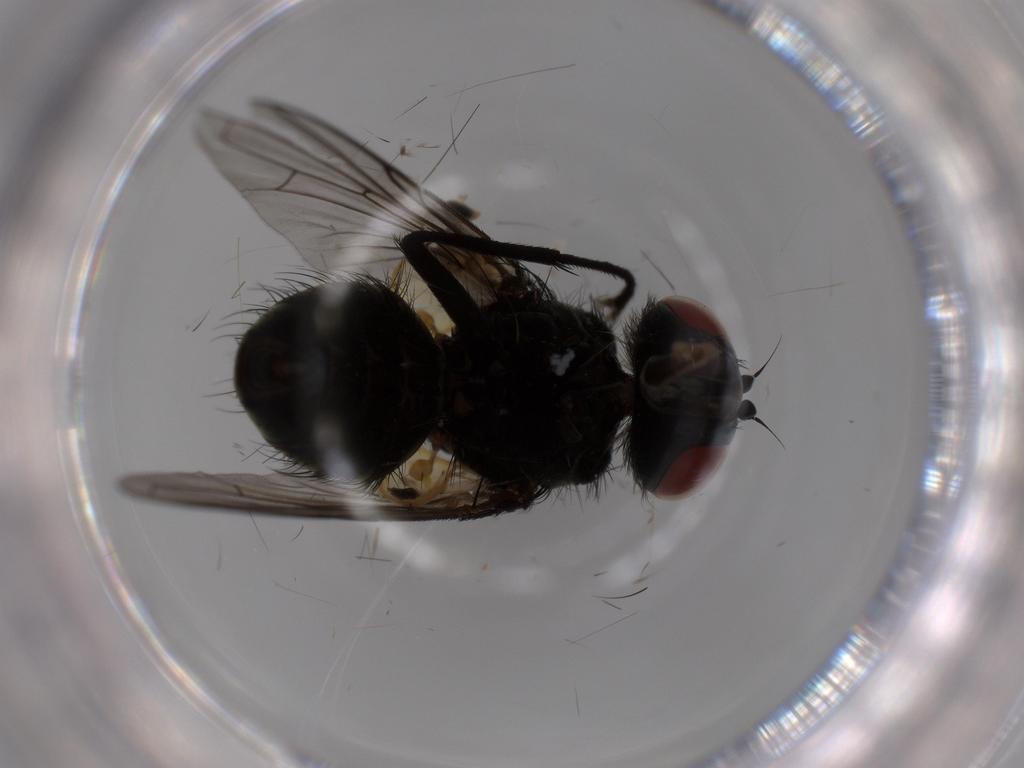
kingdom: Animalia
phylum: Arthropoda
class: Insecta
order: Diptera
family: Tachinidae
